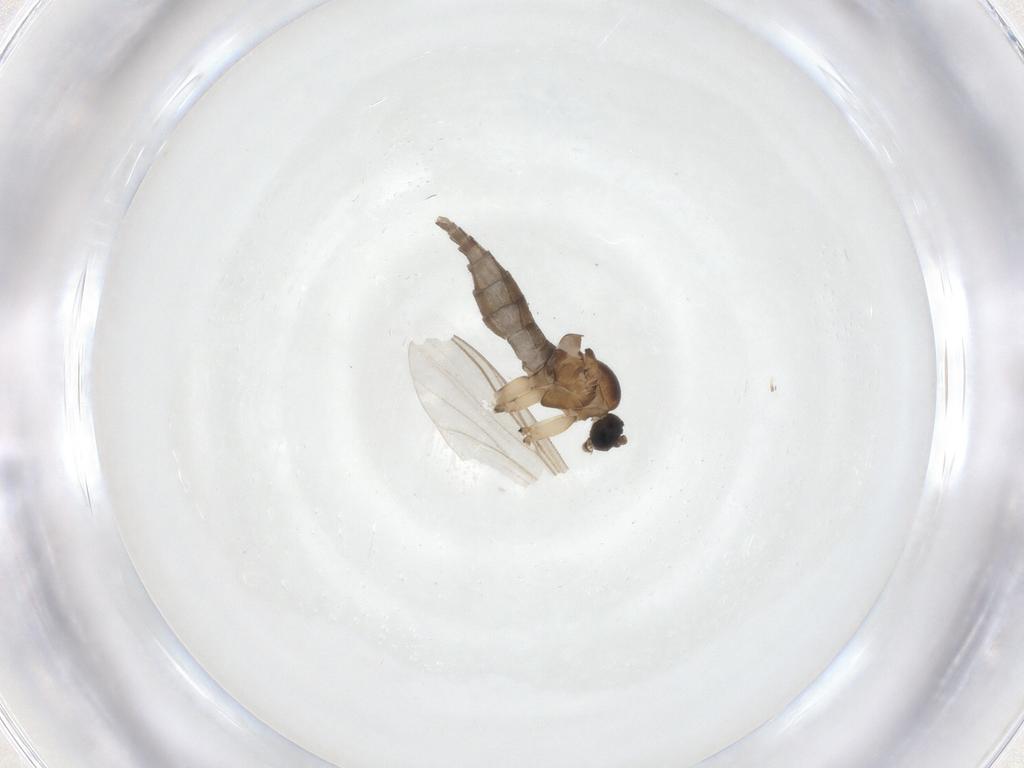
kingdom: Animalia
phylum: Arthropoda
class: Insecta
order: Diptera
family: Sciaridae
